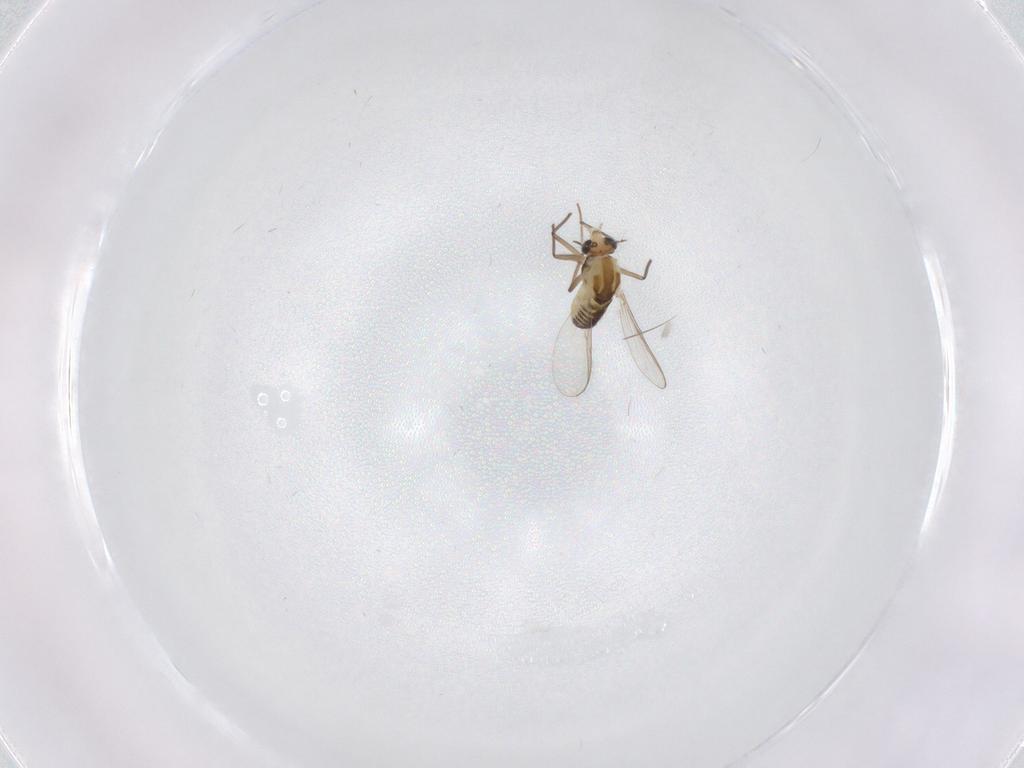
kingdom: Animalia
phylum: Arthropoda
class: Insecta
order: Diptera
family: Chironomidae
